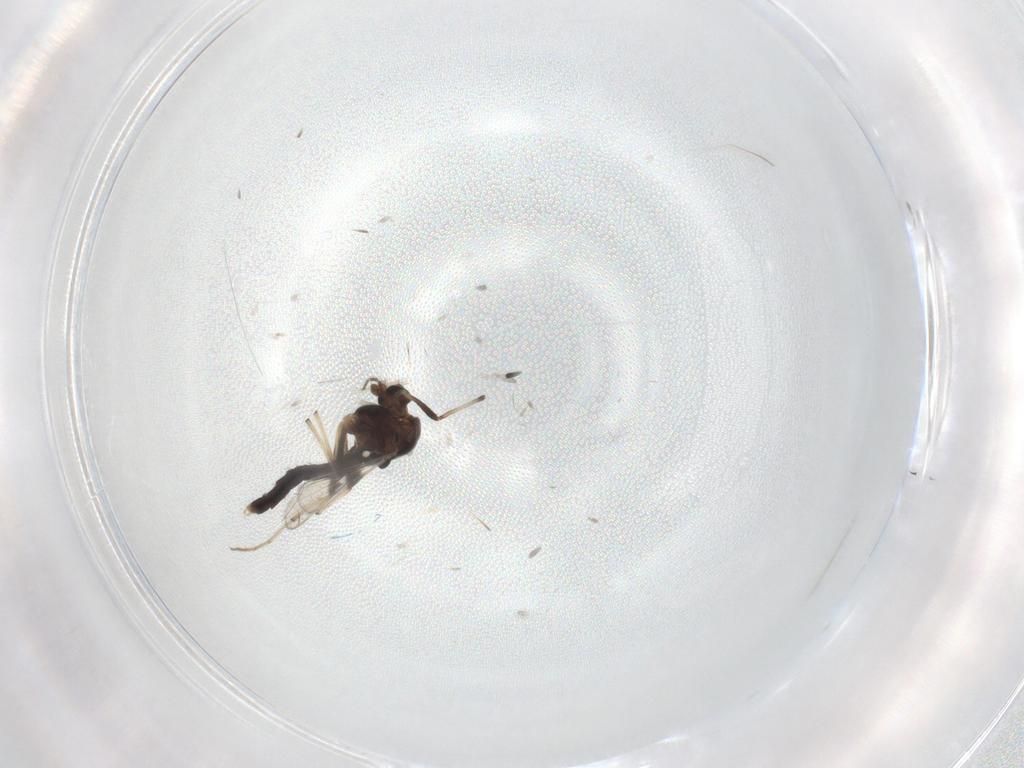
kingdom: Animalia
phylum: Arthropoda
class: Insecta
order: Diptera
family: Chironomidae
